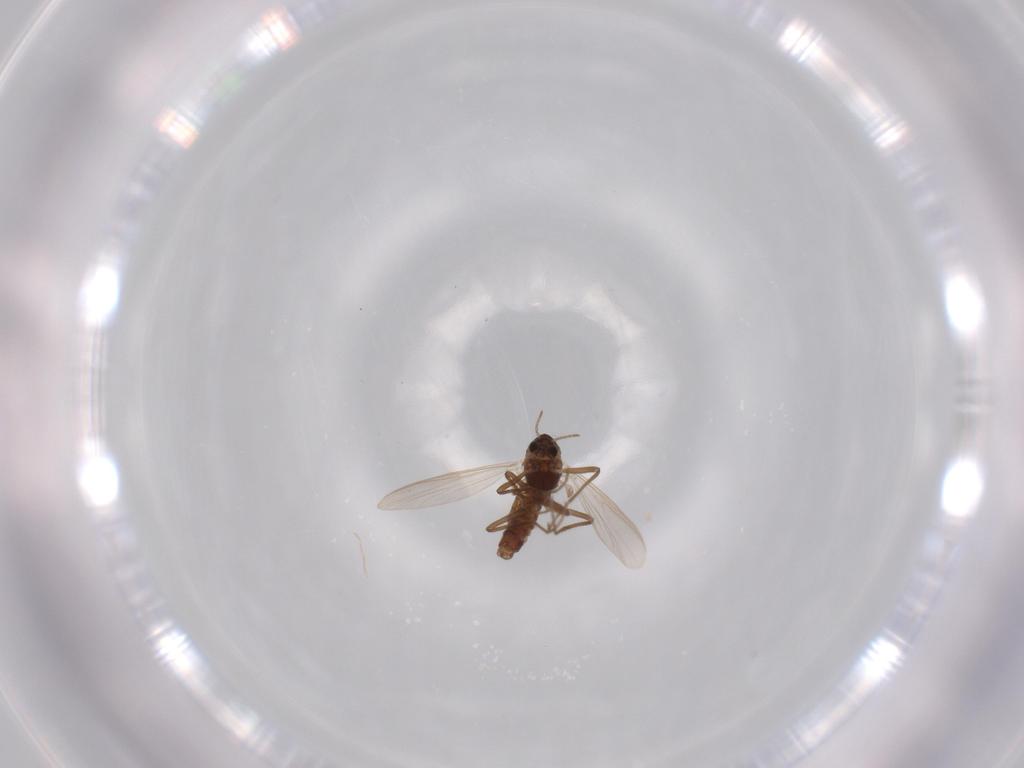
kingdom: Animalia
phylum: Arthropoda
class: Insecta
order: Diptera
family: Chironomidae
